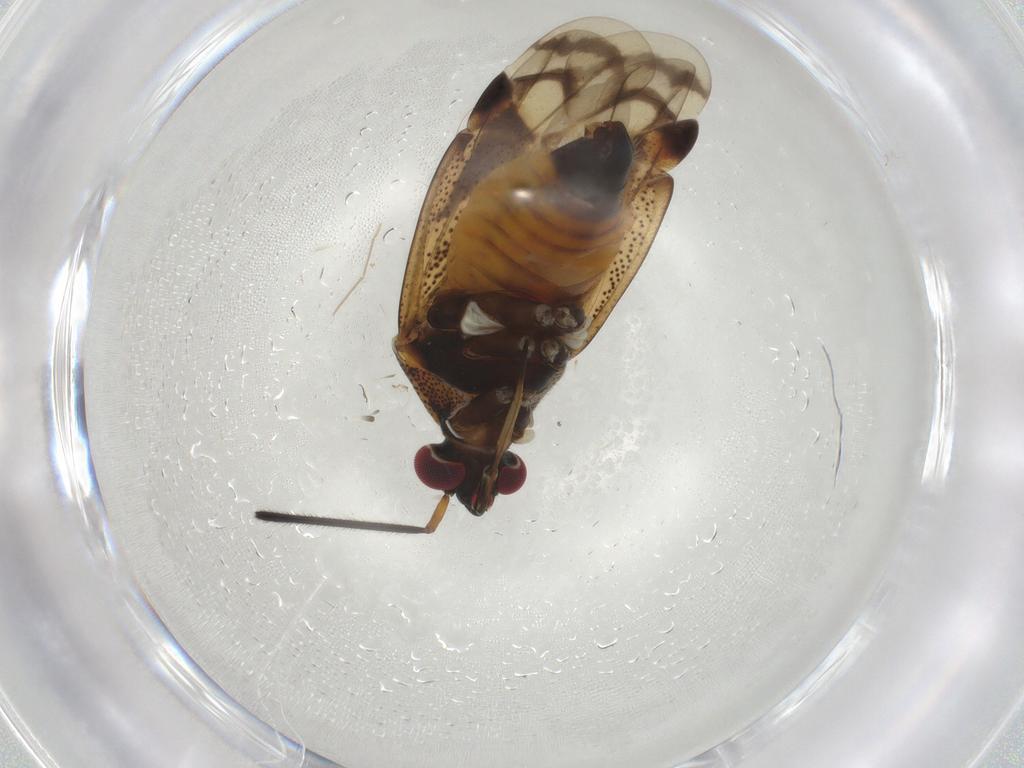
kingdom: Animalia
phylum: Arthropoda
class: Insecta
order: Hemiptera
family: Miridae
